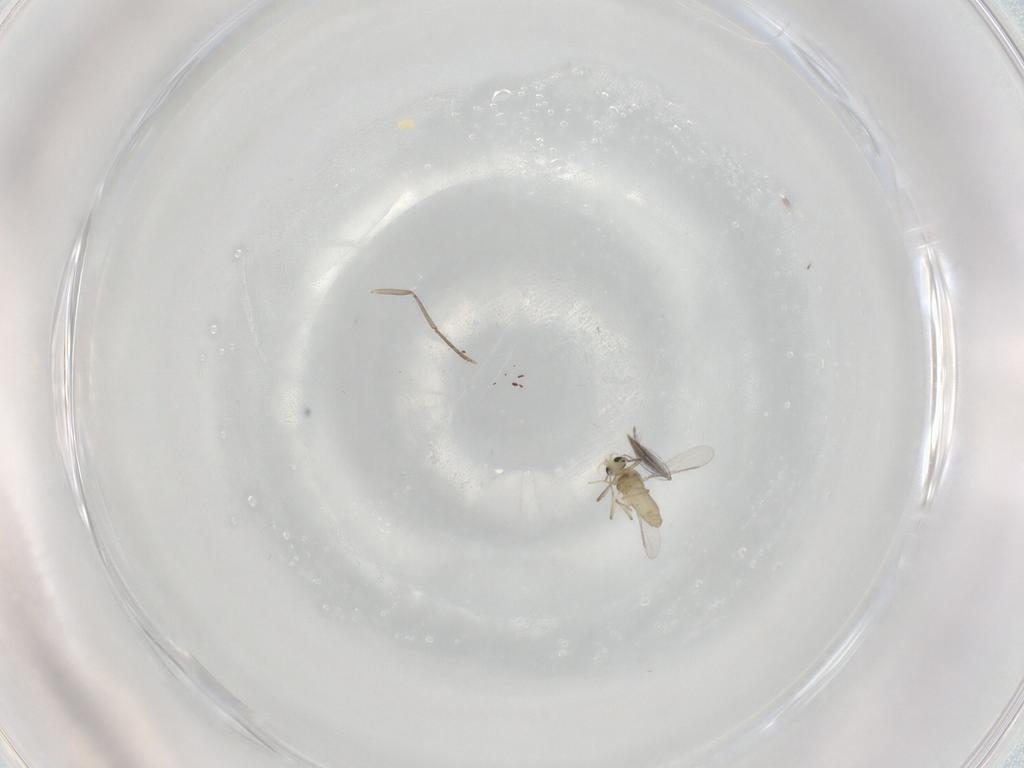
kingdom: Animalia
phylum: Arthropoda
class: Insecta
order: Diptera
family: Chironomidae
